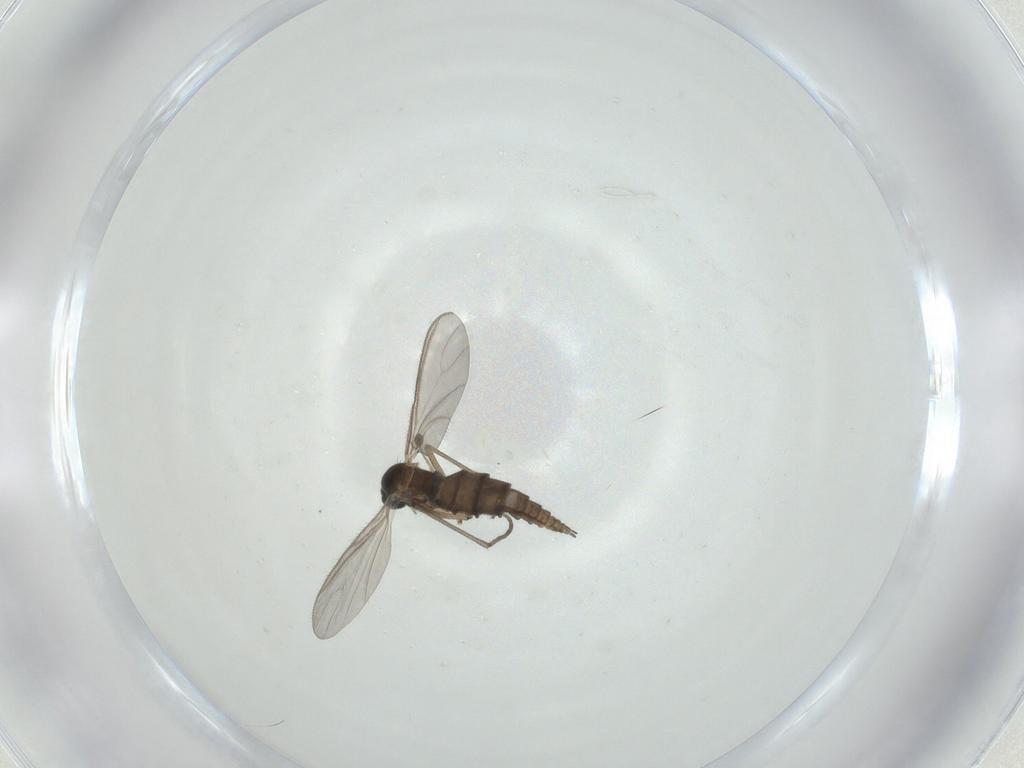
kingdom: Animalia
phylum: Arthropoda
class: Insecta
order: Diptera
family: Sciaridae
